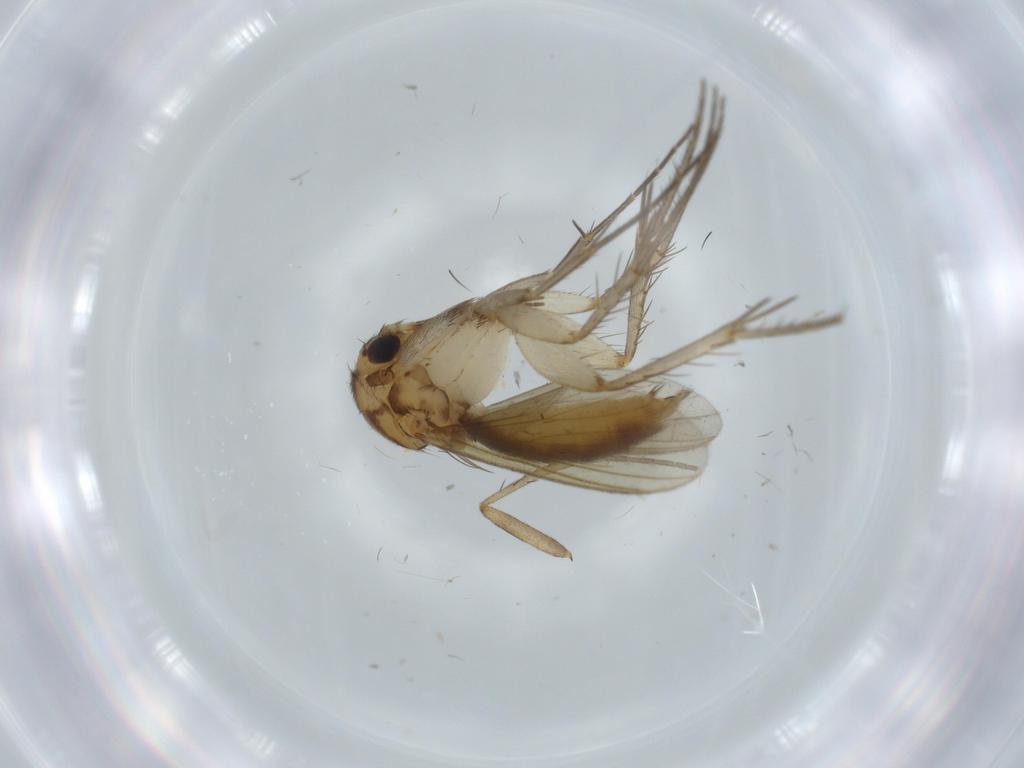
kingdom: Animalia
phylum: Arthropoda
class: Insecta
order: Diptera
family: Mycetophilidae
